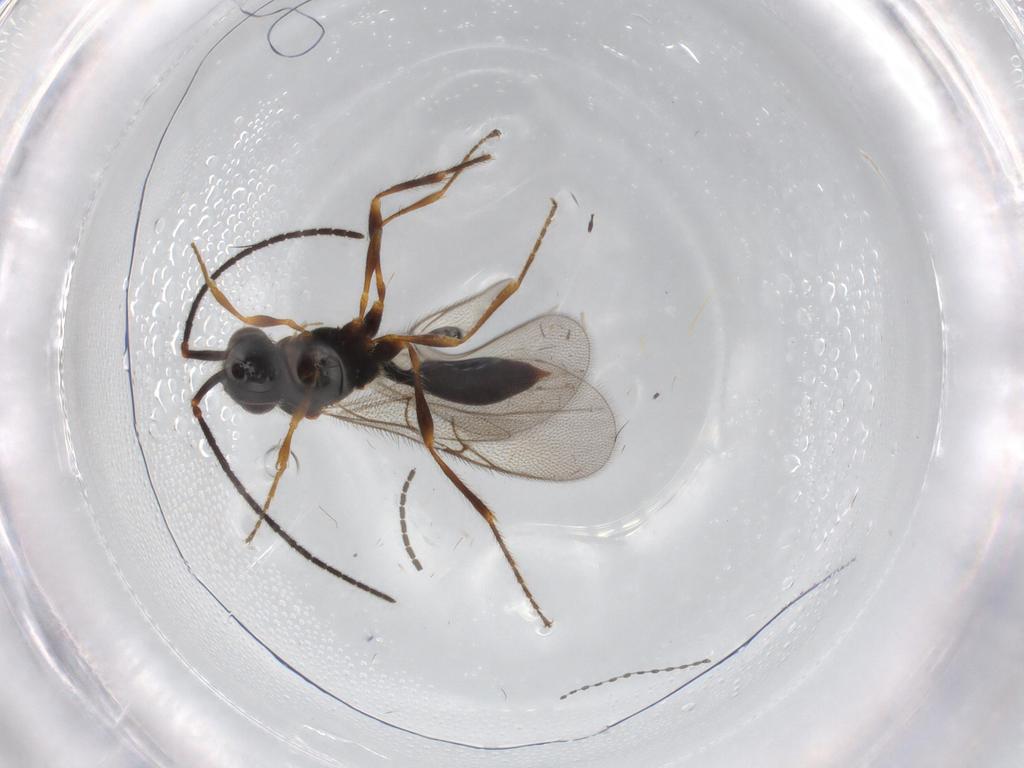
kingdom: Animalia
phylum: Arthropoda
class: Insecta
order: Hymenoptera
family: Diapriidae
